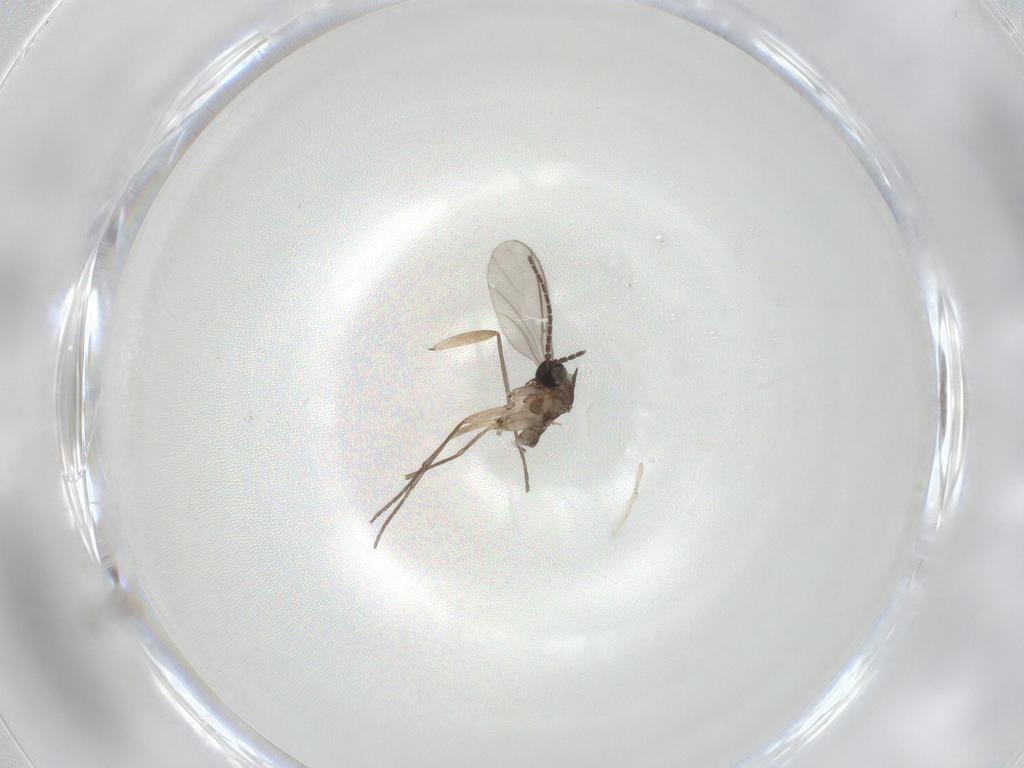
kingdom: Animalia
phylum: Arthropoda
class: Insecta
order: Diptera
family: Sciaridae
